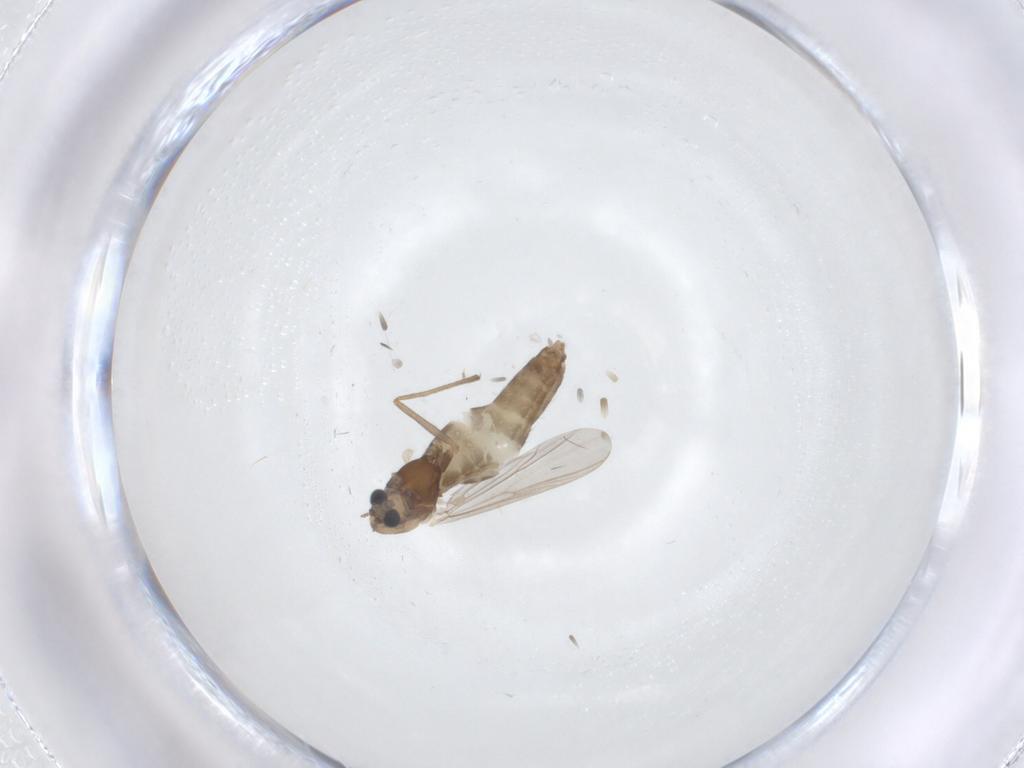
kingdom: Animalia
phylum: Arthropoda
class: Insecta
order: Diptera
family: Chironomidae
